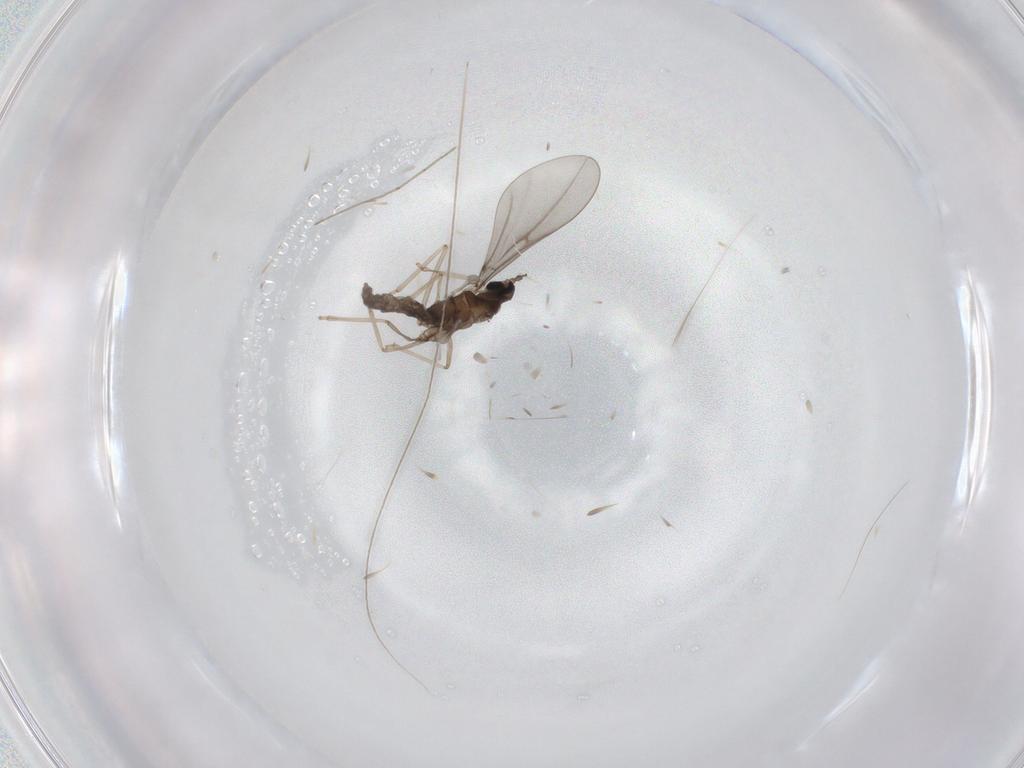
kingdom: Animalia
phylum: Arthropoda
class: Insecta
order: Diptera
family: Cecidomyiidae
